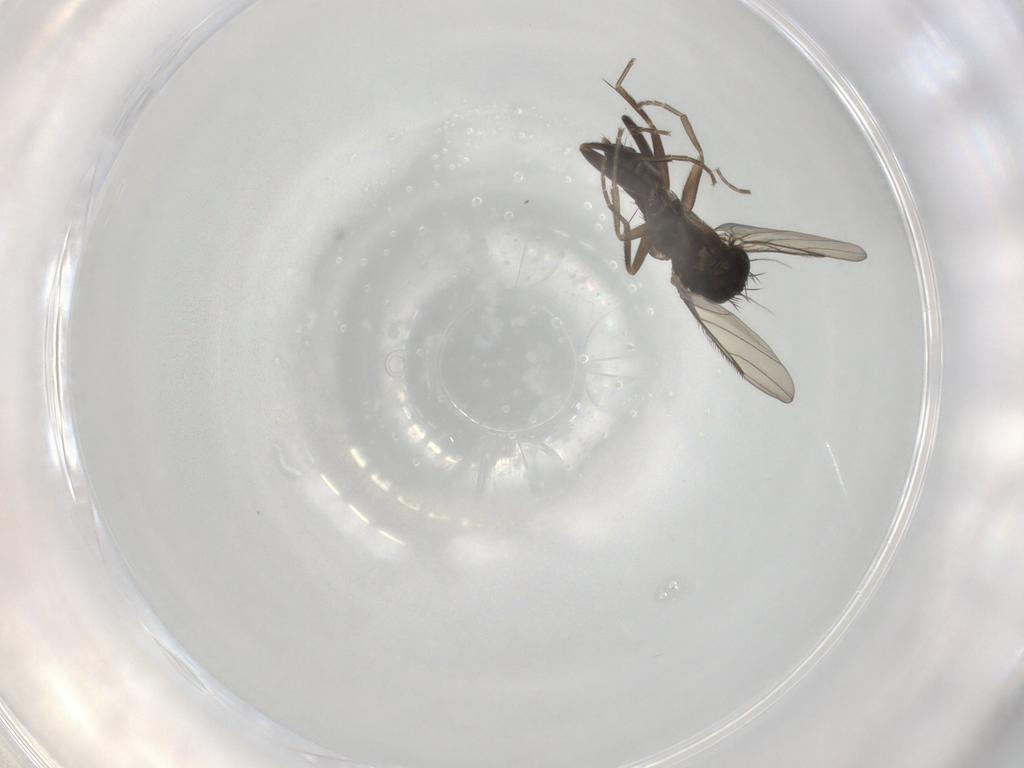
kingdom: Animalia
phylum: Arthropoda
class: Insecta
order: Diptera
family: Phoridae
